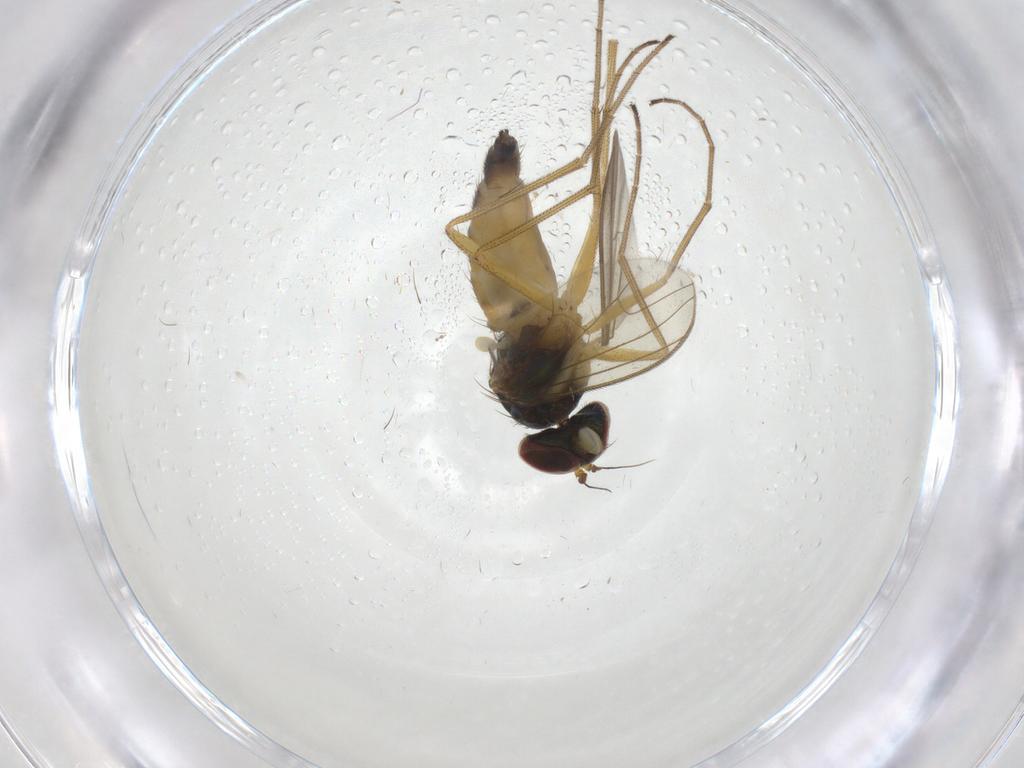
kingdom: Animalia
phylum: Arthropoda
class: Insecta
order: Diptera
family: Dolichopodidae
